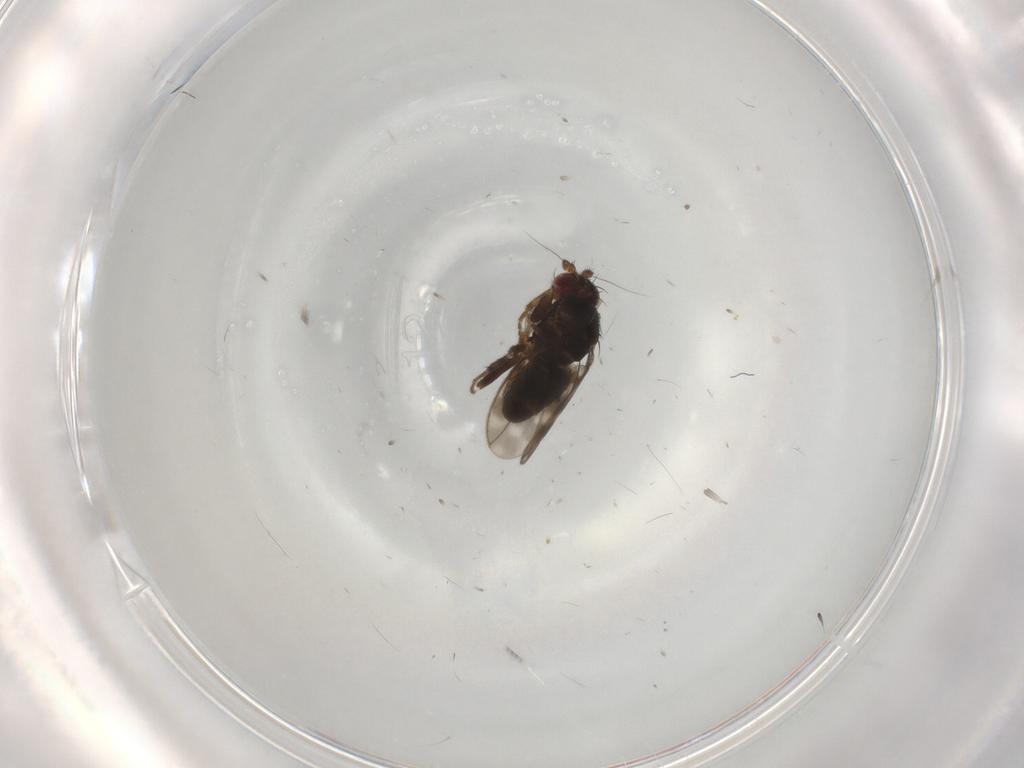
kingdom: Animalia
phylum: Arthropoda
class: Insecta
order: Diptera
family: Sphaeroceridae
